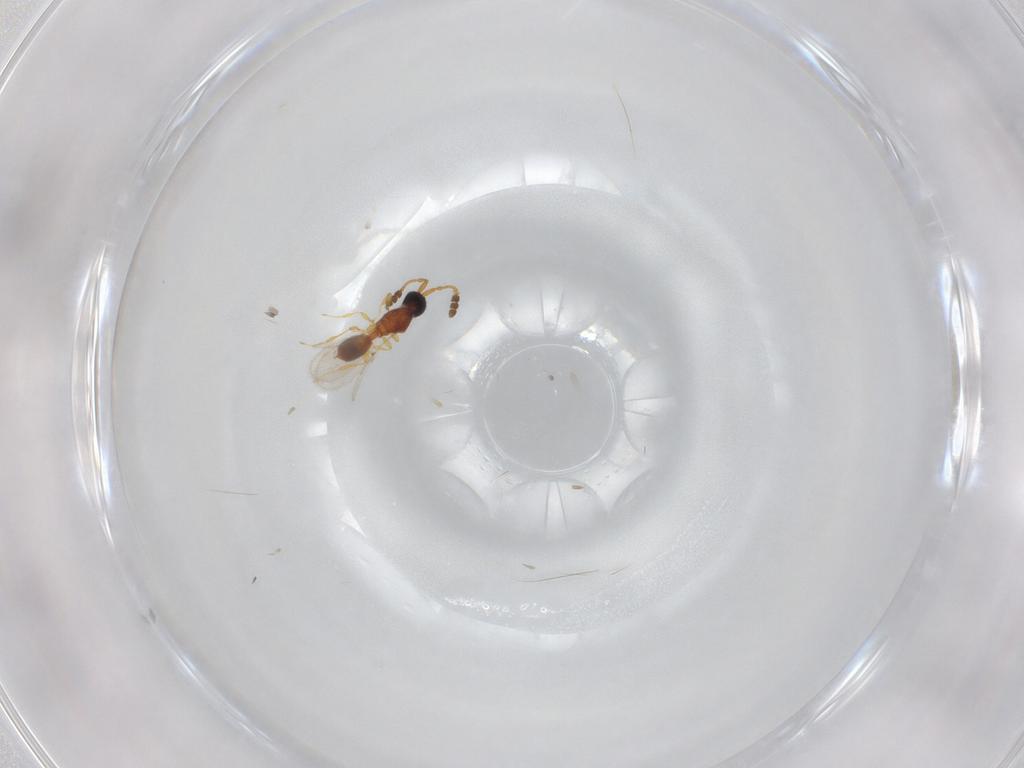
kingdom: Animalia
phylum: Arthropoda
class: Insecta
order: Hymenoptera
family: Diapriidae
